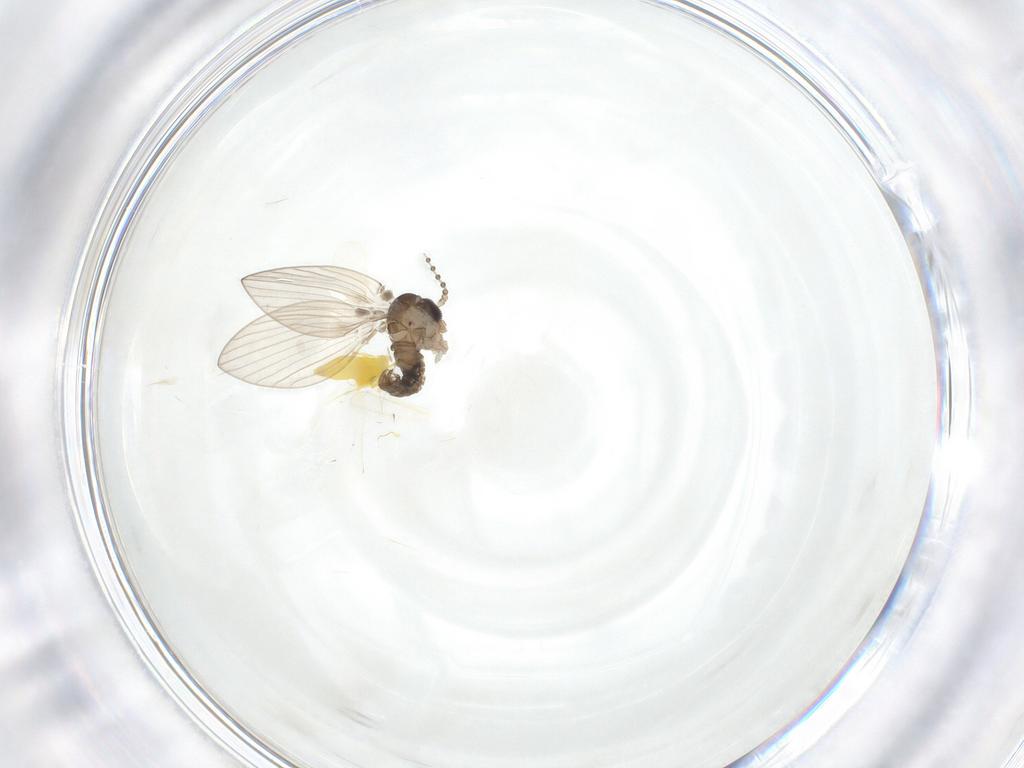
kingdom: Animalia
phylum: Arthropoda
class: Insecta
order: Diptera
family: Psychodidae
